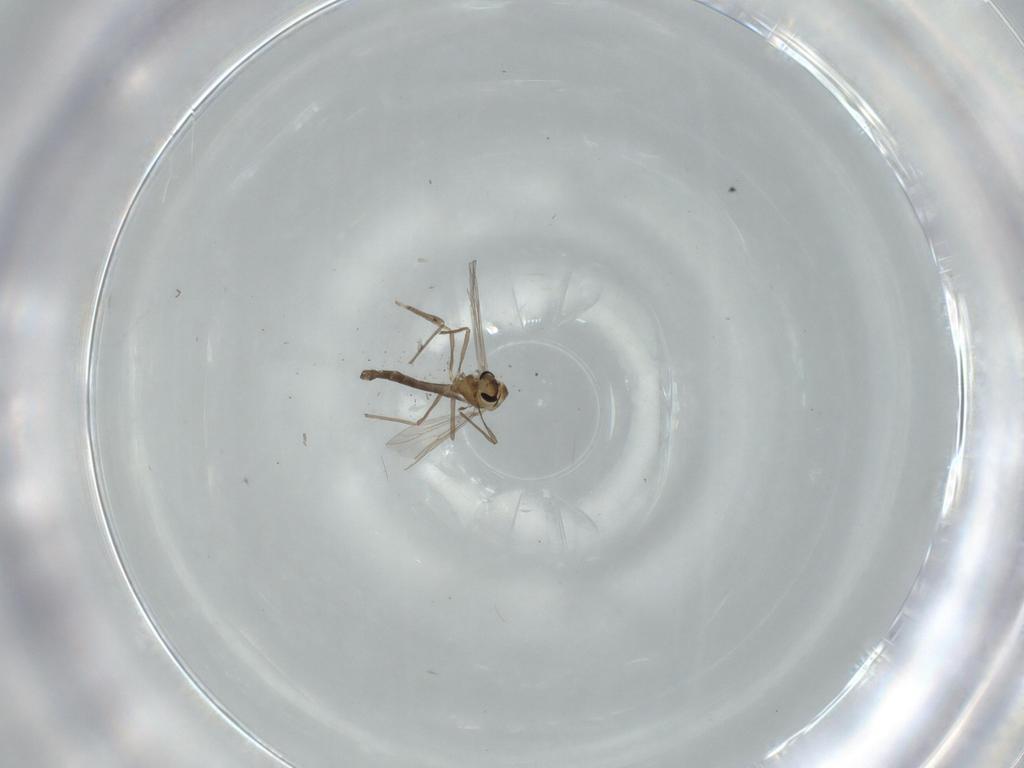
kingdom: Animalia
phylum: Arthropoda
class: Insecta
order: Diptera
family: Chironomidae
